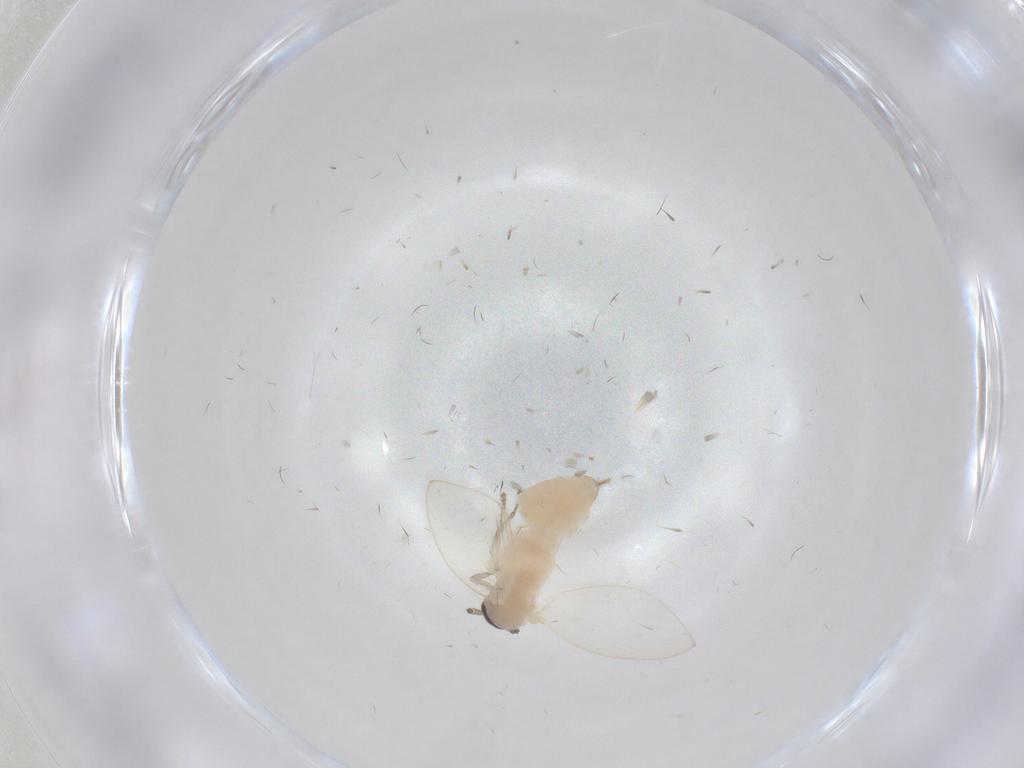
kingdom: Animalia
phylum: Arthropoda
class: Insecta
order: Diptera
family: Psychodidae
